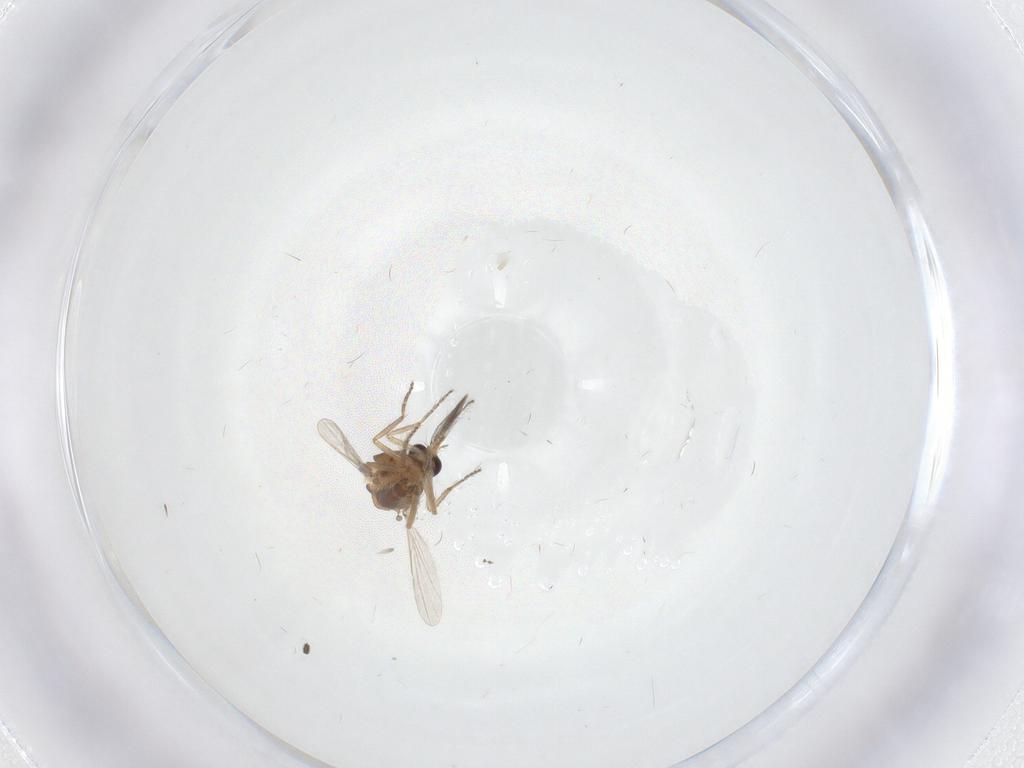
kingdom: Animalia
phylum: Arthropoda
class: Insecta
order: Diptera
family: Ceratopogonidae
